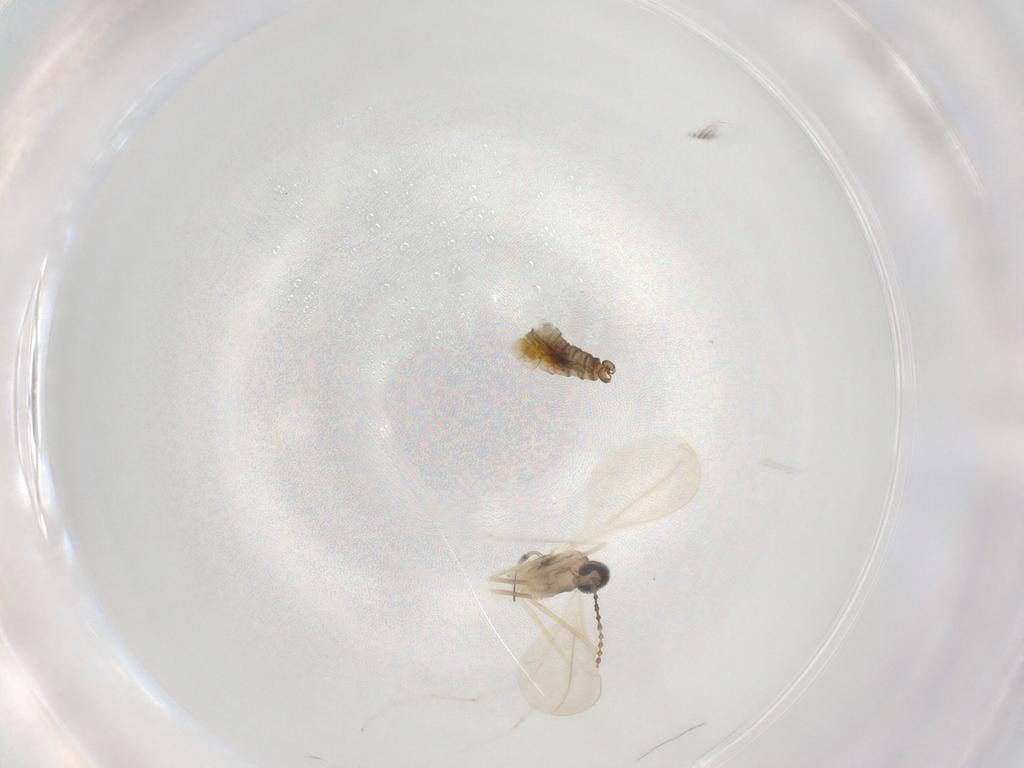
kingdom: Animalia
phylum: Arthropoda
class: Insecta
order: Diptera
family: Cecidomyiidae
